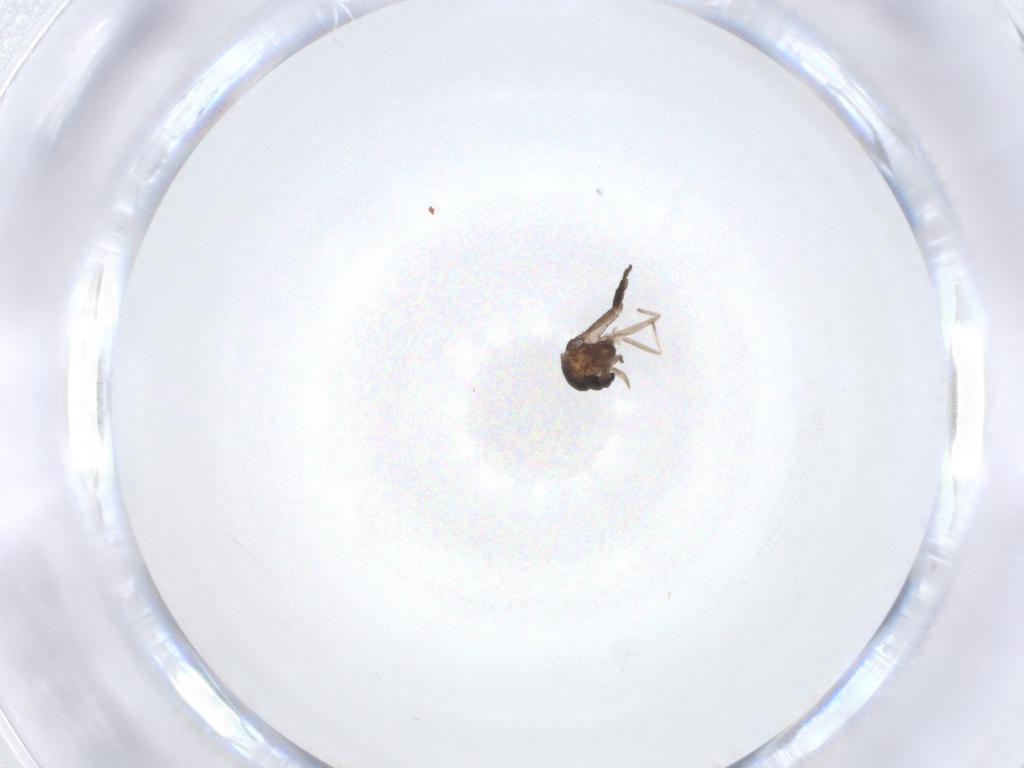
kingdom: Animalia
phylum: Arthropoda
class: Insecta
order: Diptera
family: Chironomidae
